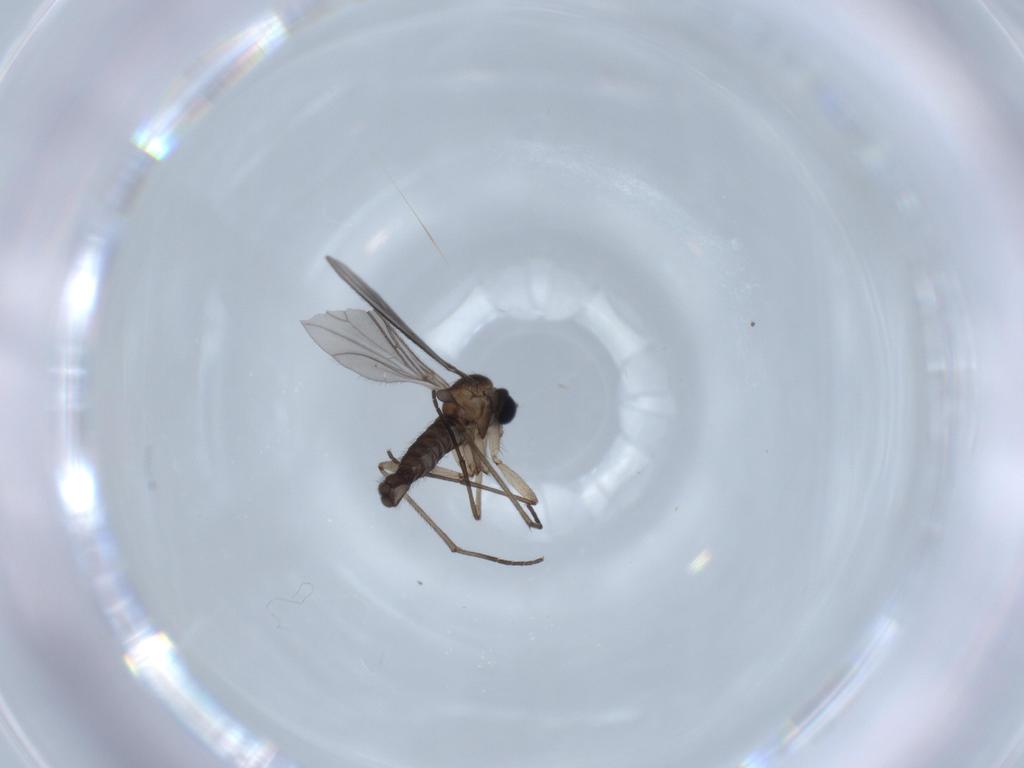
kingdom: Animalia
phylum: Arthropoda
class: Insecta
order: Diptera
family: Sciaridae
